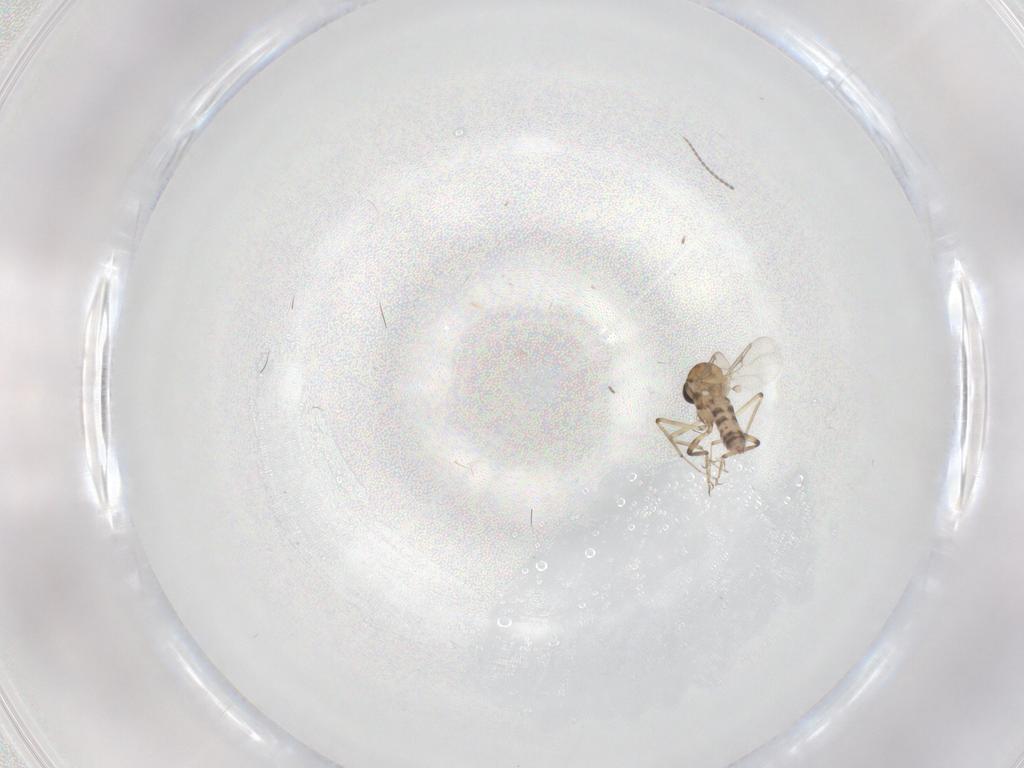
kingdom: Animalia
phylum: Arthropoda
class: Insecta
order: Diptera
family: Ceratopogonidae
